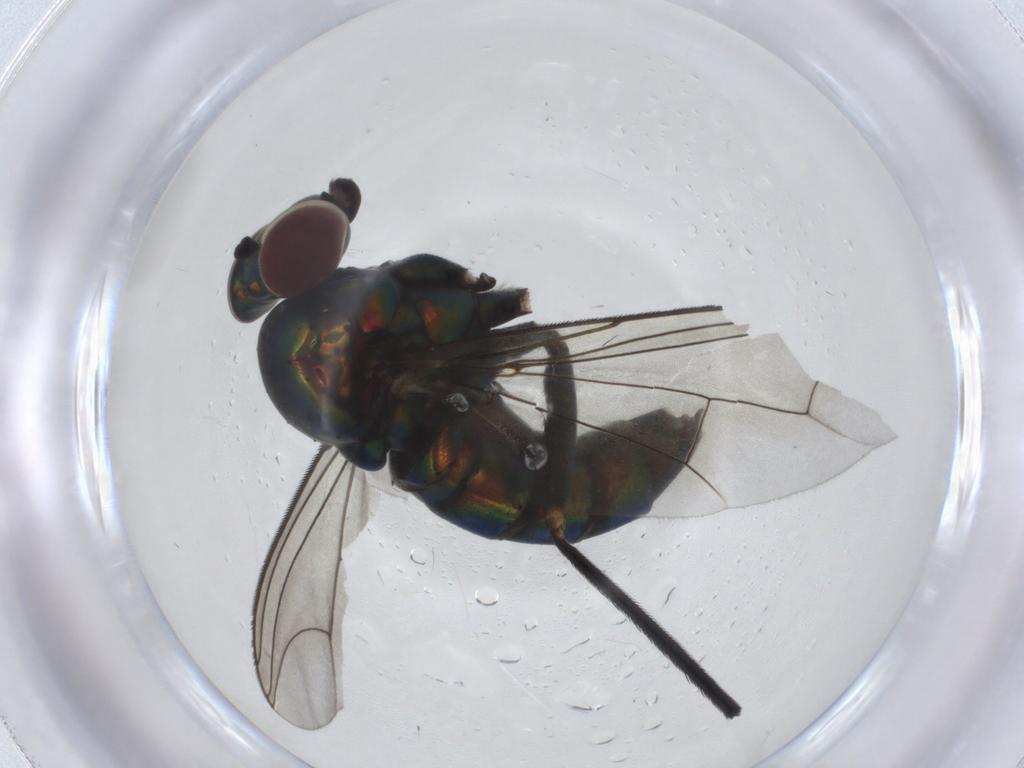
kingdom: Animalia
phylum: Arthropoda
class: Insecta
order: Diptera
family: Dolichopodidae
